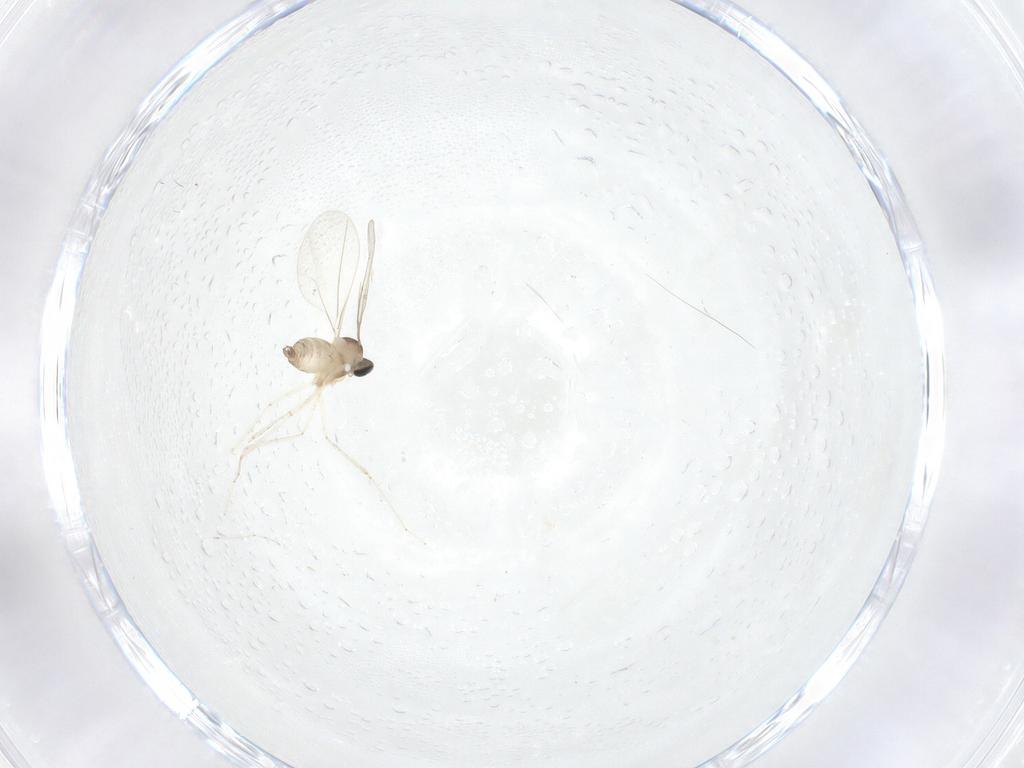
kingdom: Animalia
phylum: Arthropoda
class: Insecta
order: Diptera
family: Cecidomyiidae
